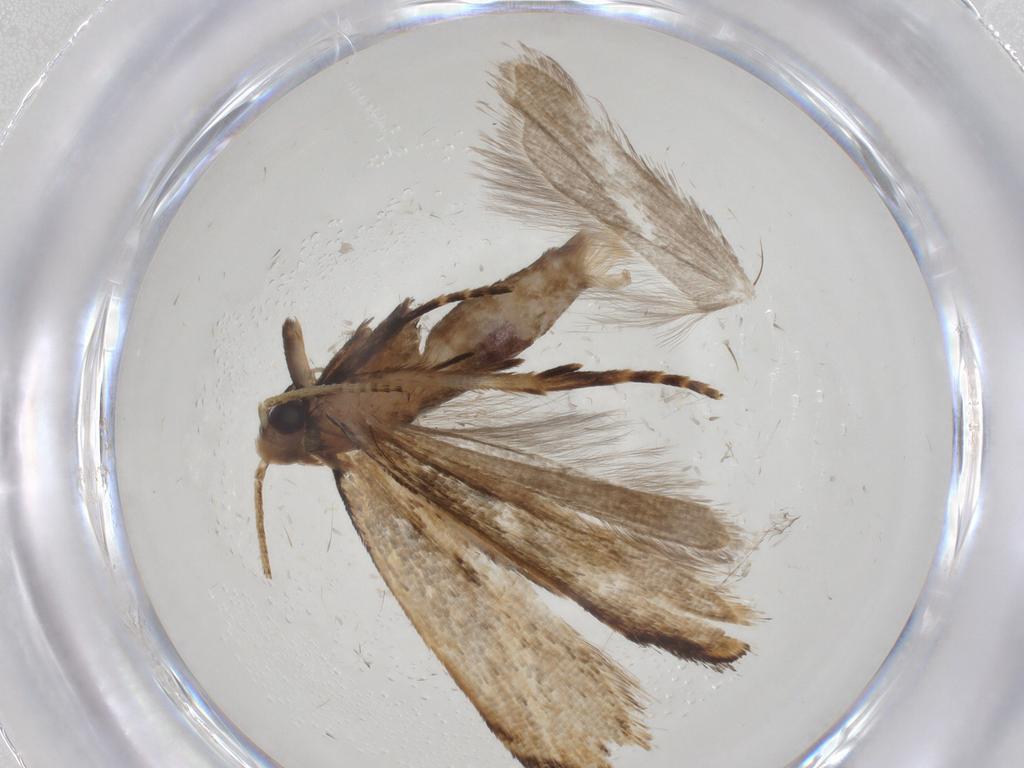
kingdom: Animalia
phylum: Arthropoda
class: Insecta
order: Lepidoptera
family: Gelechiidae
